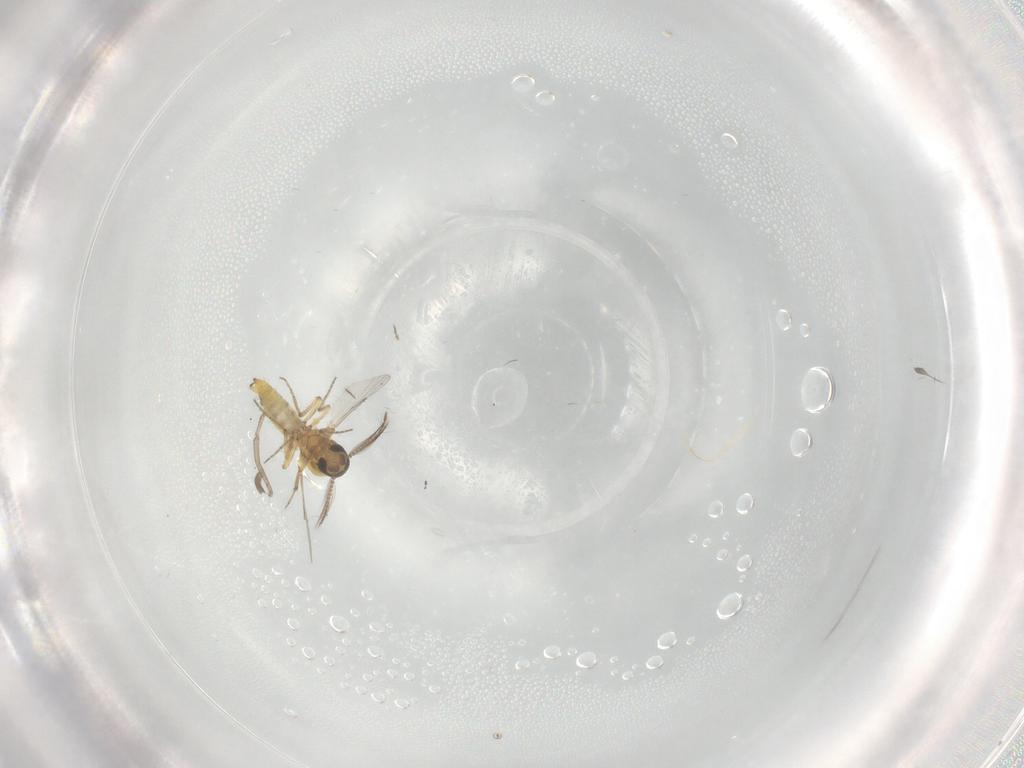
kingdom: Animalia
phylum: Arthropoda
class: Insecta
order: Diptera
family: Psychodidae
